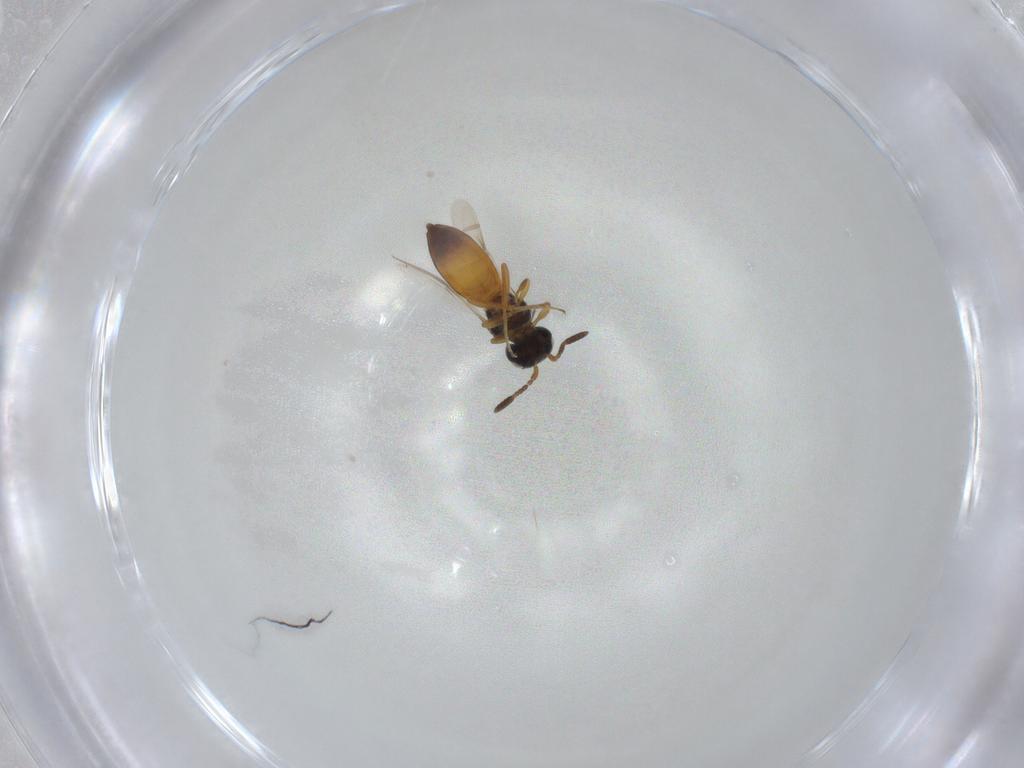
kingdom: Animalia
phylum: Arthropoda
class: Insecta
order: Hymenoptera
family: Scelionidae
